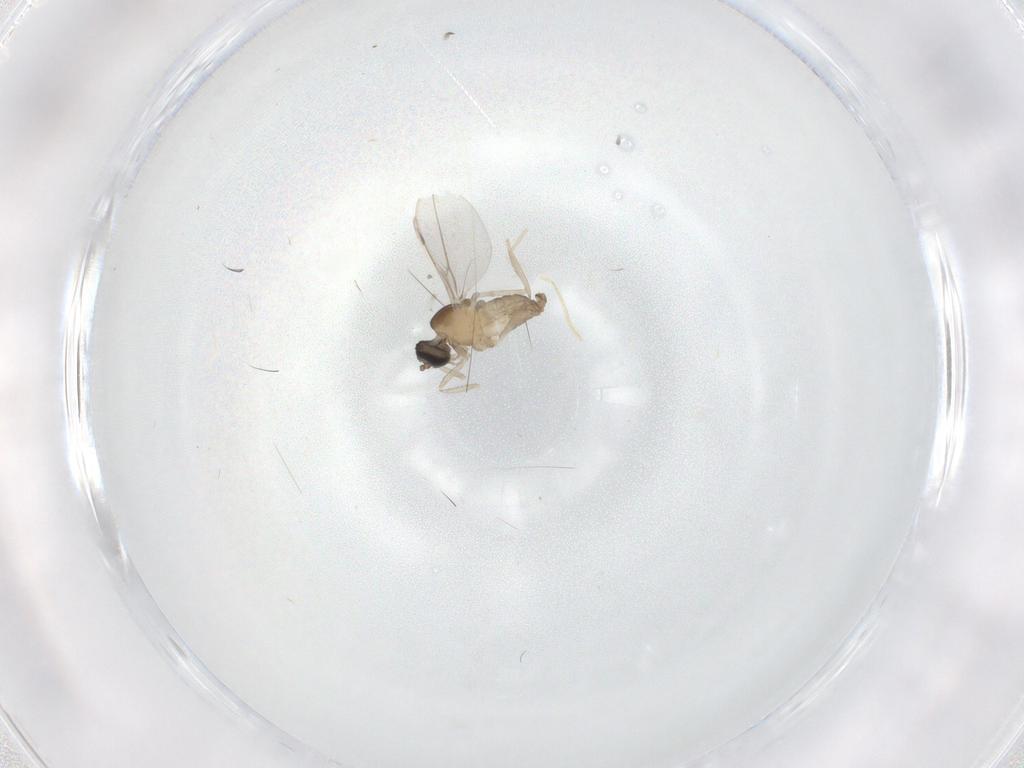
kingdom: Animalia
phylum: Arthropoda
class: Insecta
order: Diptera
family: Cecidomyiidae
